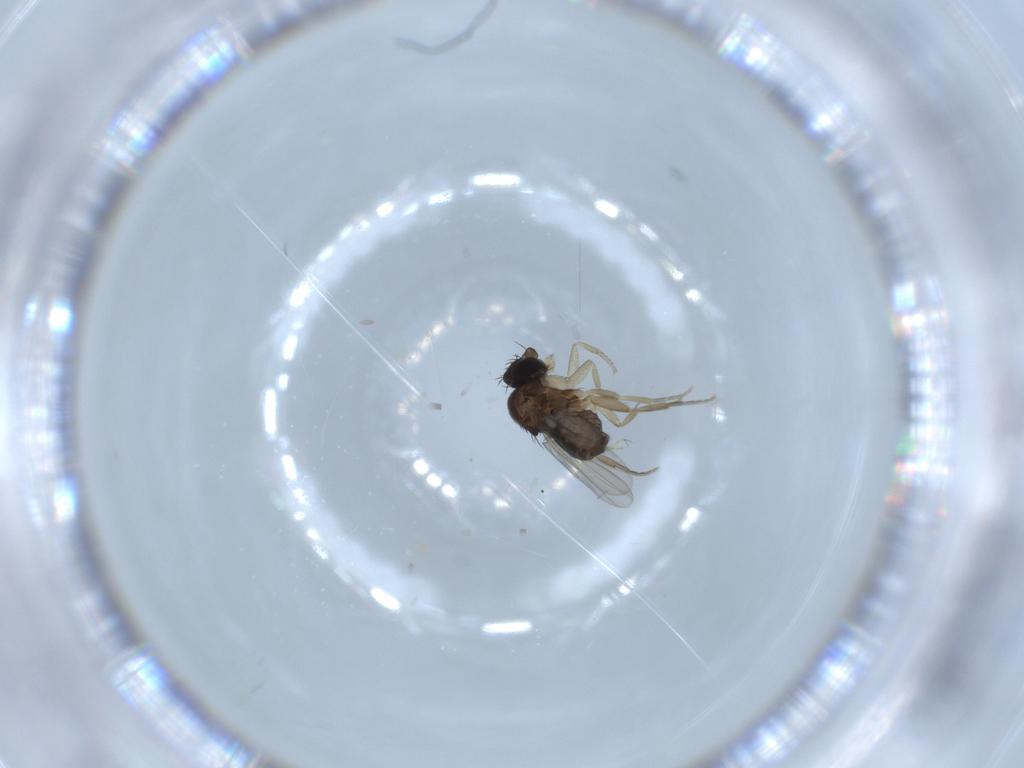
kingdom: Animalia
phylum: Arthropoda
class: Insecta
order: Diptera
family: Phoridae
